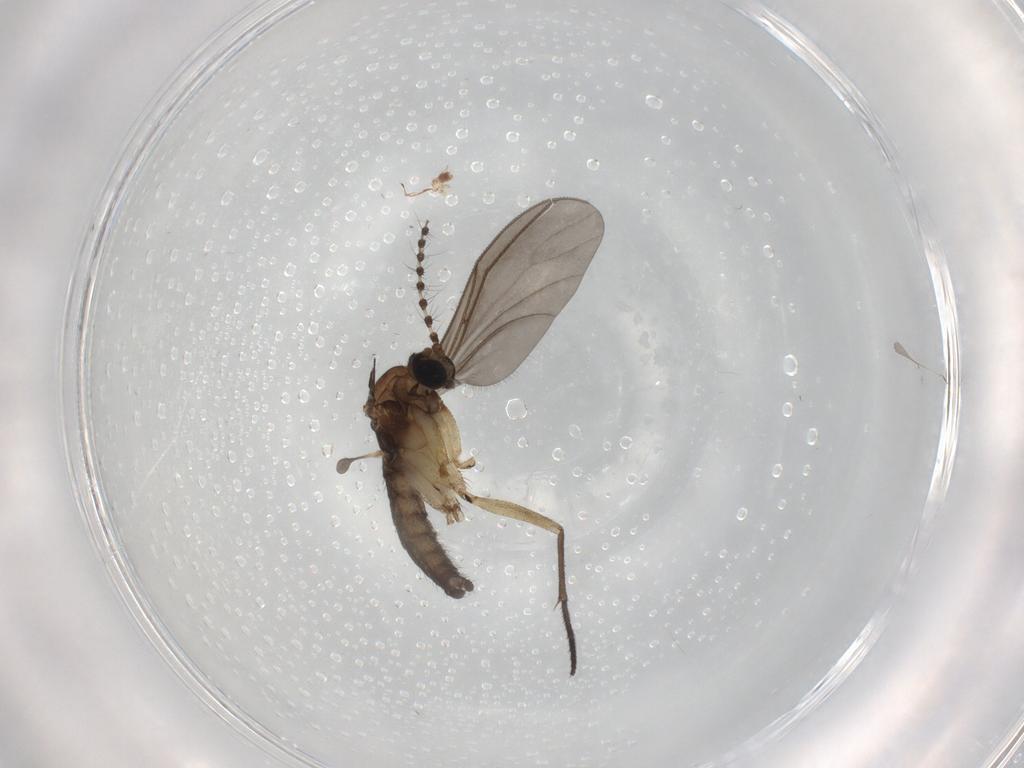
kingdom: Animalia
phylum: Arthropoda
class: Insecta
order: Diptera
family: Sciaridae
